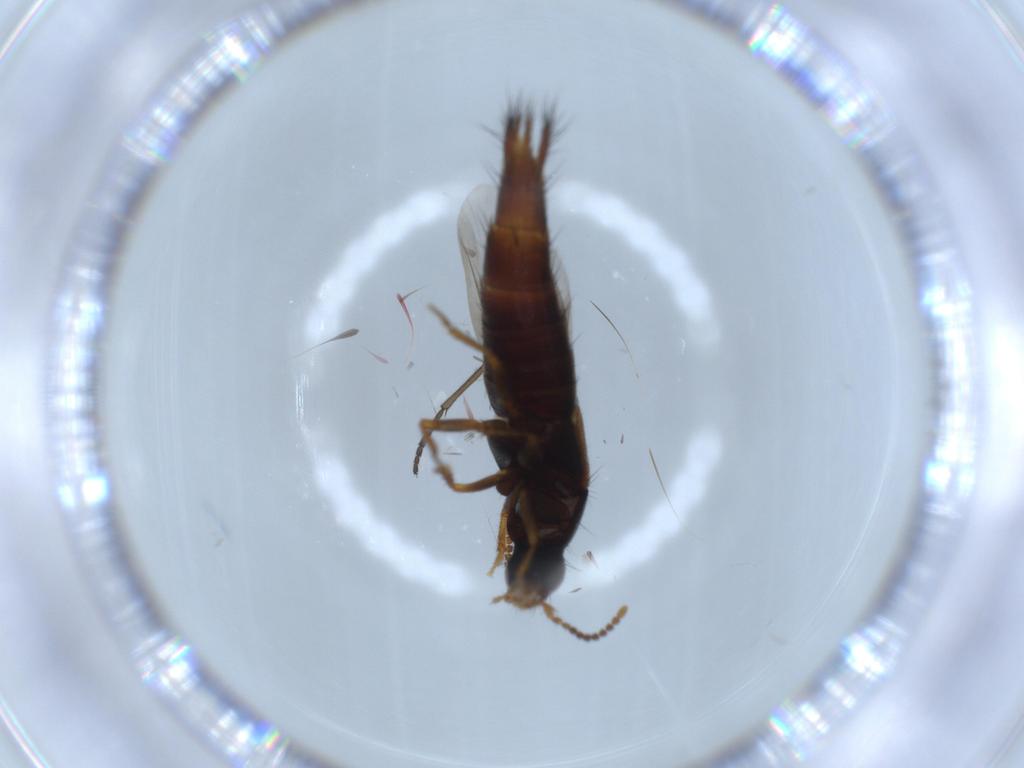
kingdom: Animalia
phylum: Arthropoda
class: Insecta
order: Coleoptera
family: Staphylinidae
